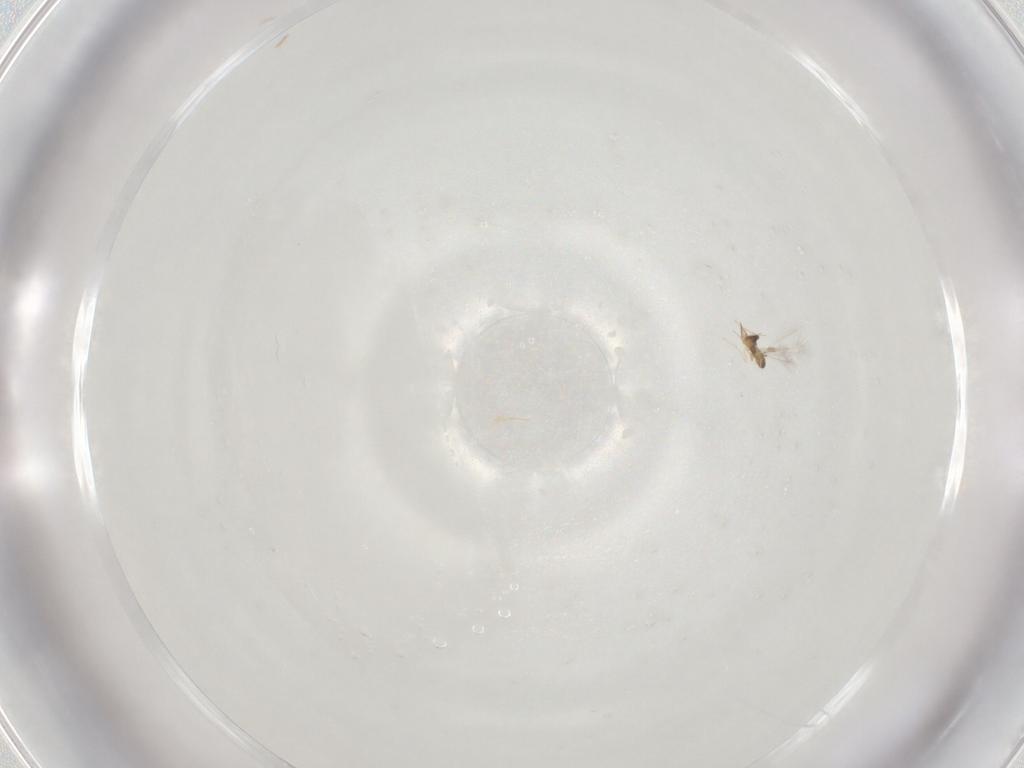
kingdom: Animalia
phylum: Arthropoda
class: Insecta
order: Hymenoptera
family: Mymaridae
